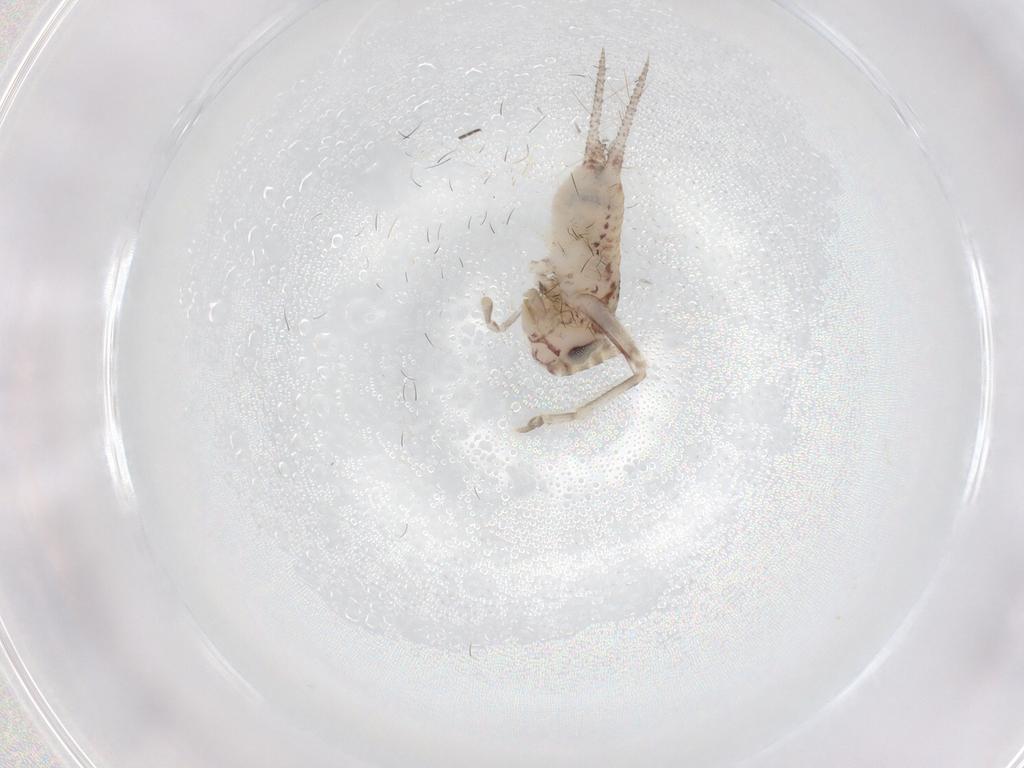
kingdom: Animalia
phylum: Arthropoda
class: Insecta
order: Orthoptera
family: Trigonidiidae
